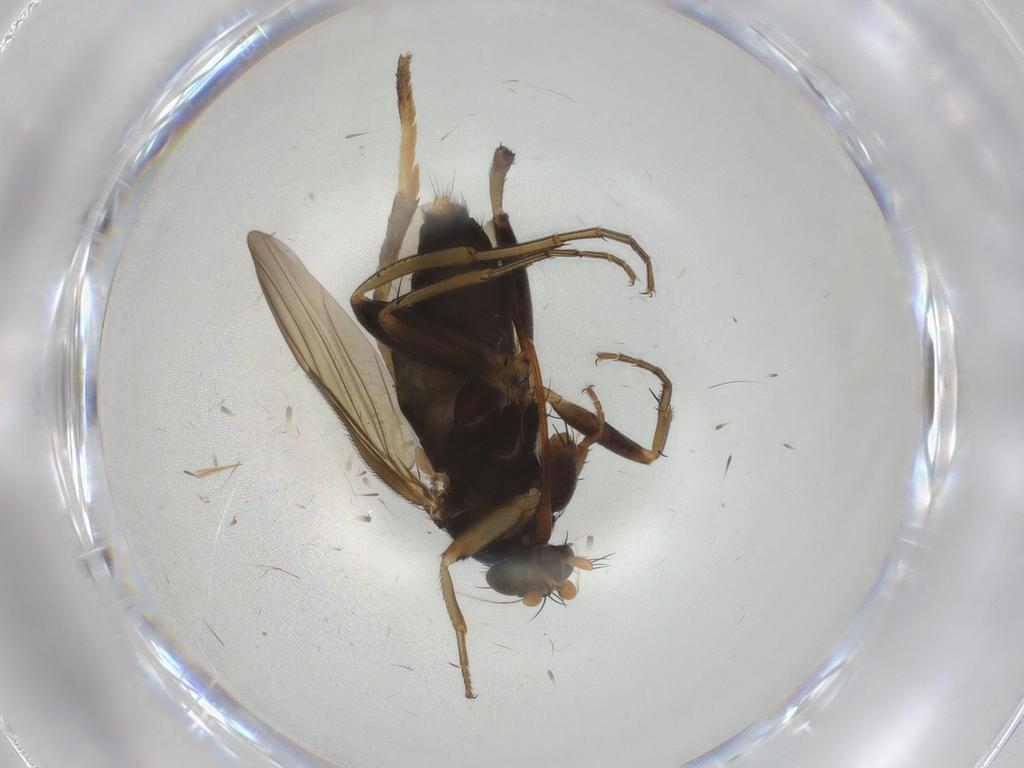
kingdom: Animalia
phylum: Arthropoda
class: Insecta
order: Diptera
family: Phoridae
